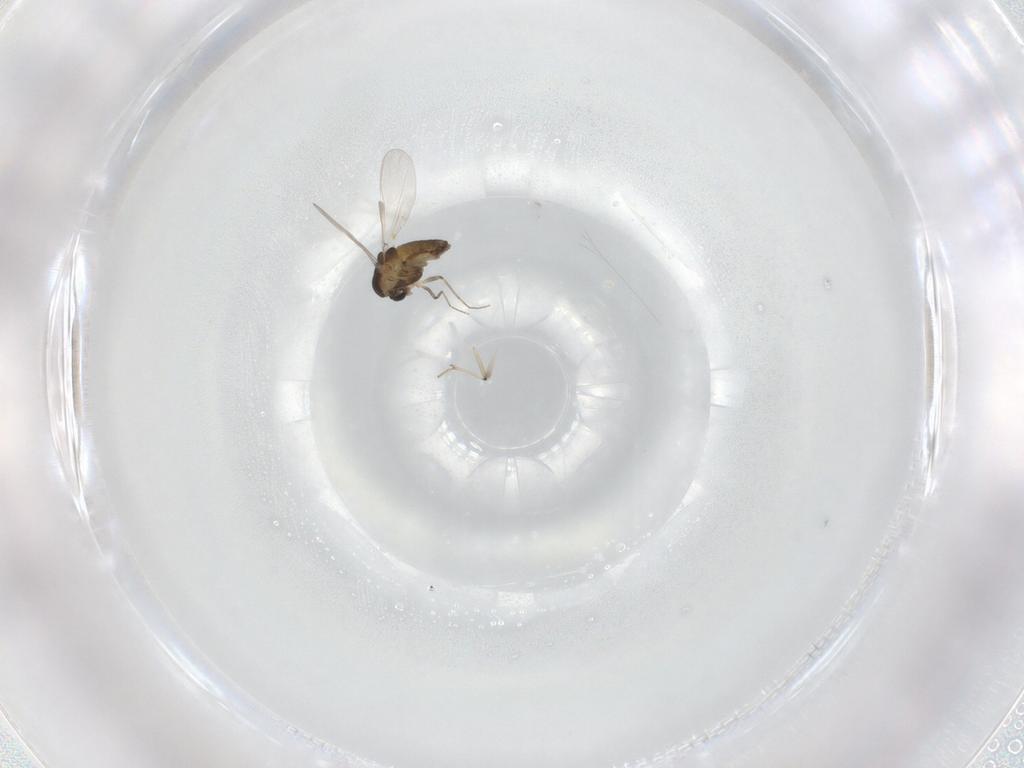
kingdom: Animalia
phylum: Arthropoda
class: Insecta
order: Diptera
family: Chironomidae
